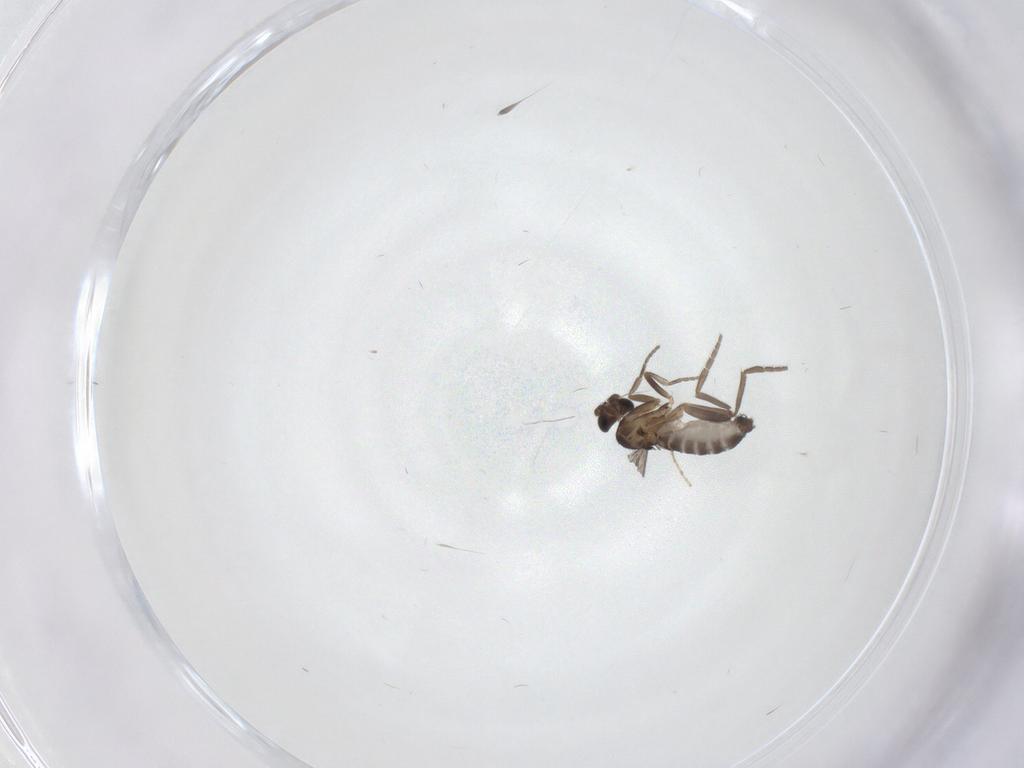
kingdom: Animalia
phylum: Arthropoda
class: Insecta
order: Diptera
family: Phoridae
